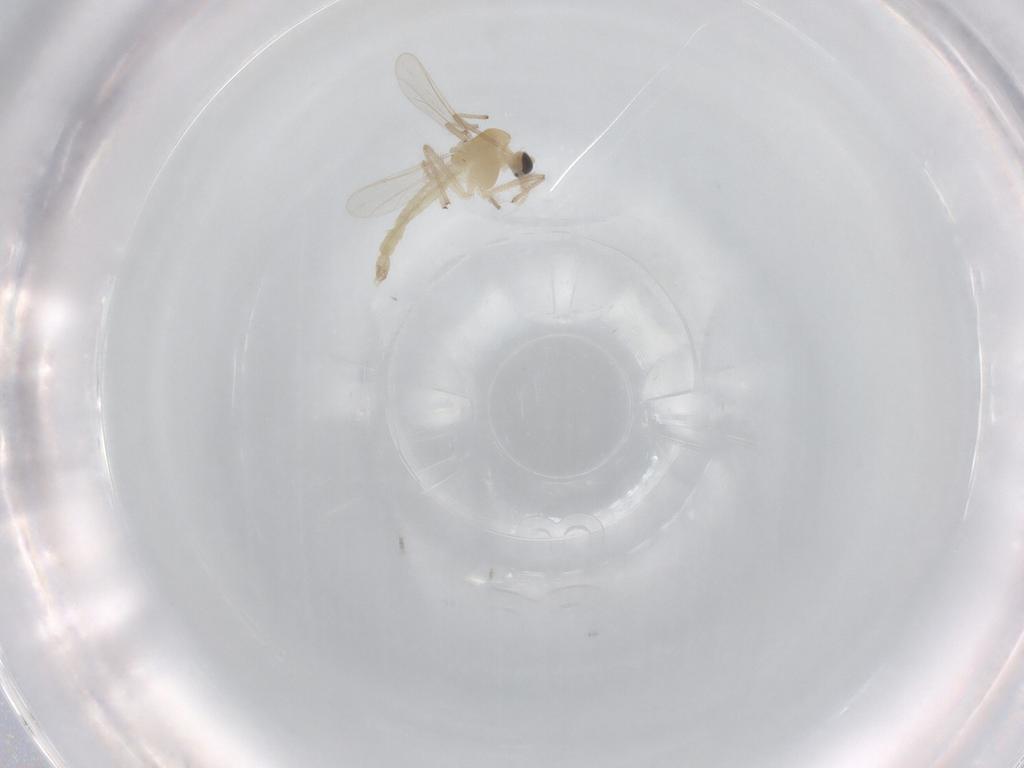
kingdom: Animalia
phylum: Arthropoda
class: Insecta
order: Diptera
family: Chironomidae
